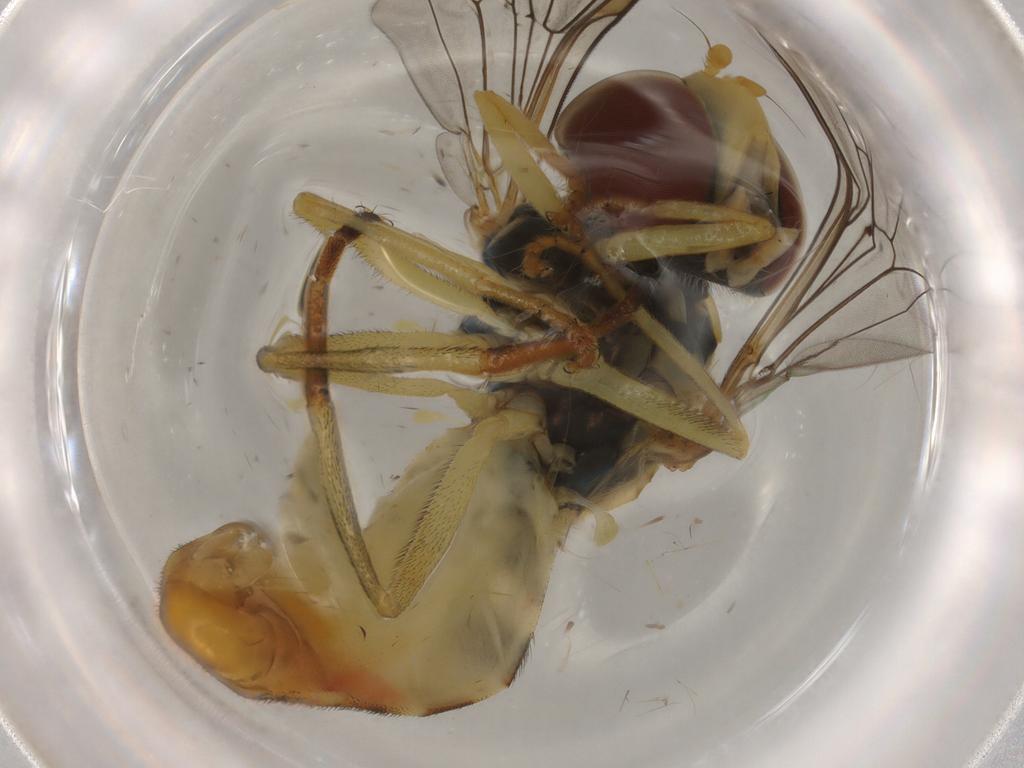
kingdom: Animalia
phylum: Arthropoda
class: Insecta
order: Diptera
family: Syrphidae
